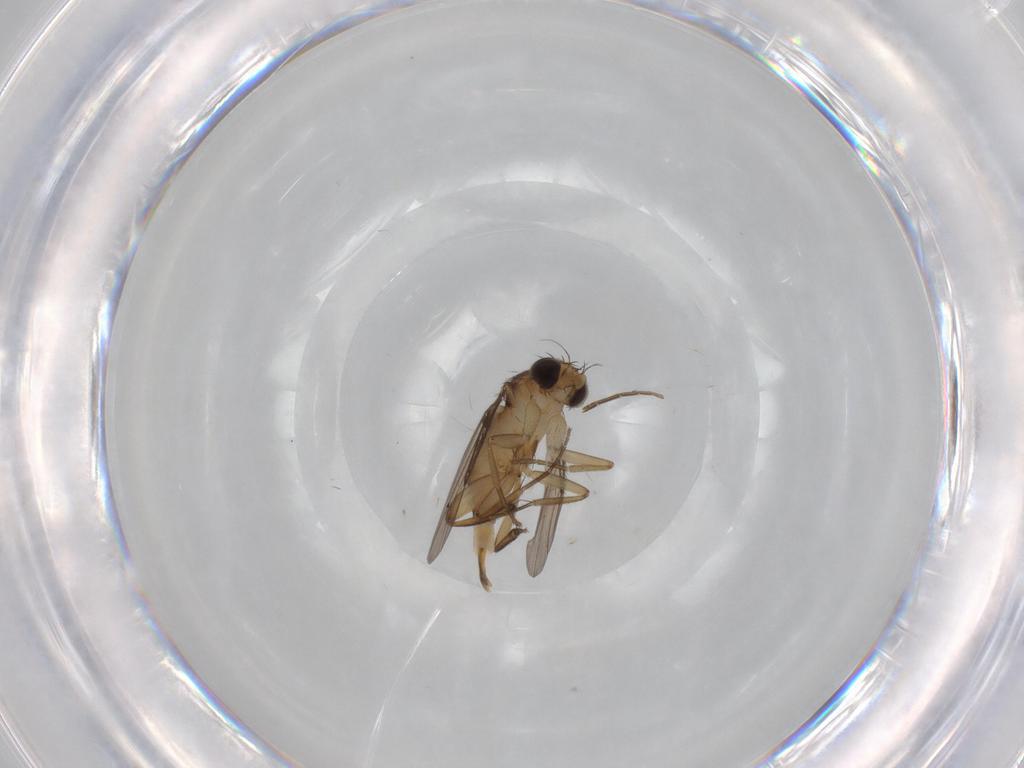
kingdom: Animalia
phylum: Arthropoda
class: Insecta
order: Diptera
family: Phoridae
